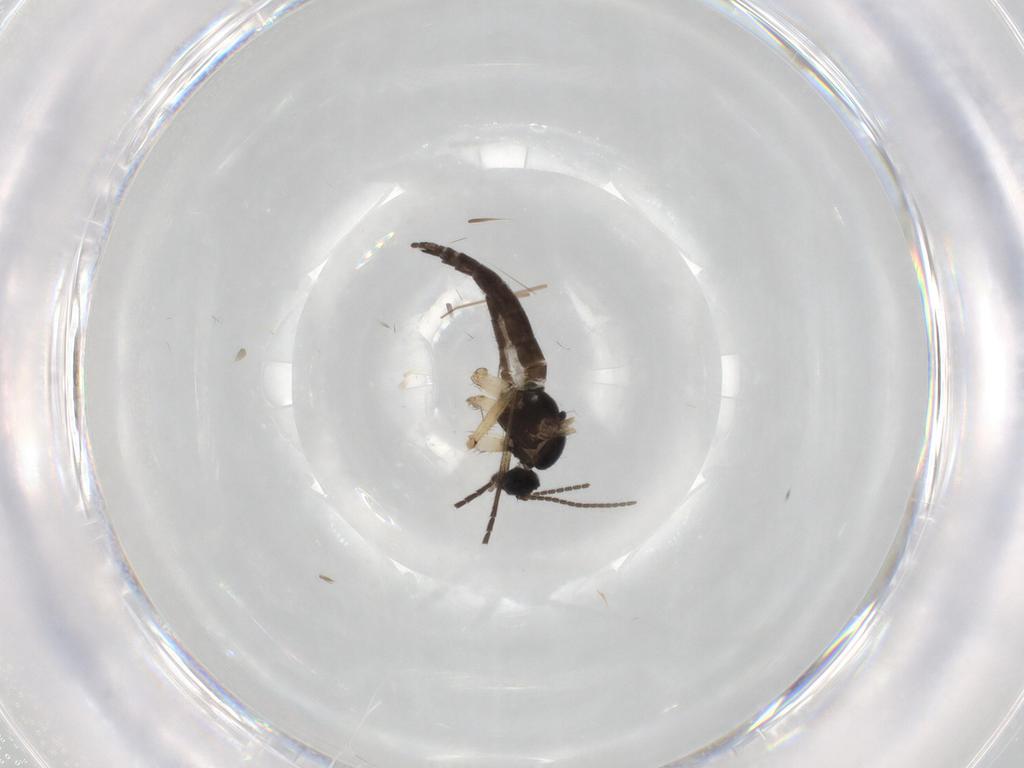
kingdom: Animalia
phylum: Arthropoda
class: Insecta
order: Diptera
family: Sciaridae
